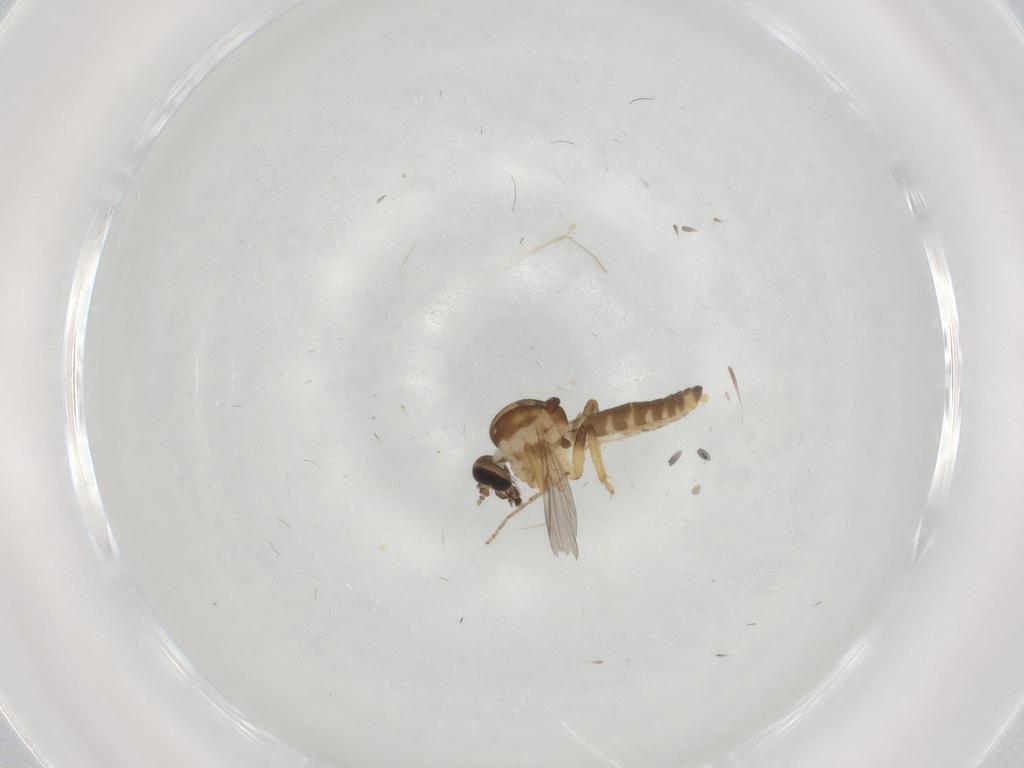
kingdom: Animalia
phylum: Arthropoda
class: Insecta
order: Diptera
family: Ceratopogonidae
